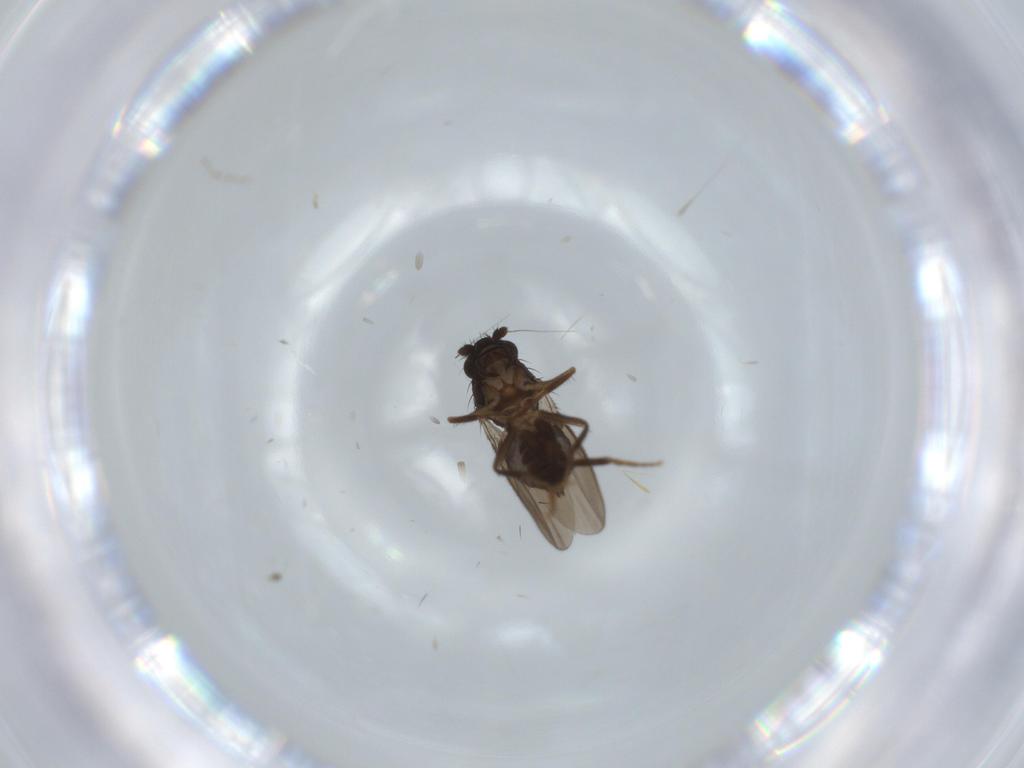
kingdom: Animalia
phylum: Arthropoda
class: Insecta
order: Diptera
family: Sphaeroceridae
